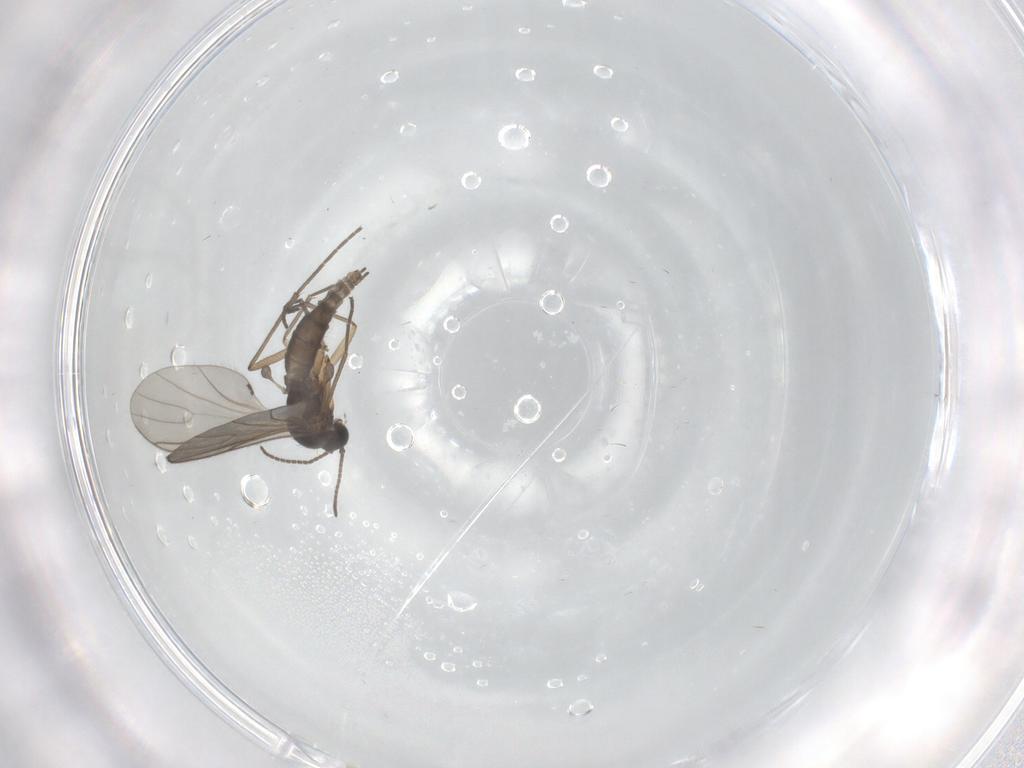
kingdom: Animalia
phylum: Arthropoda
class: Insecta
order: Diptera
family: Sciaridae
